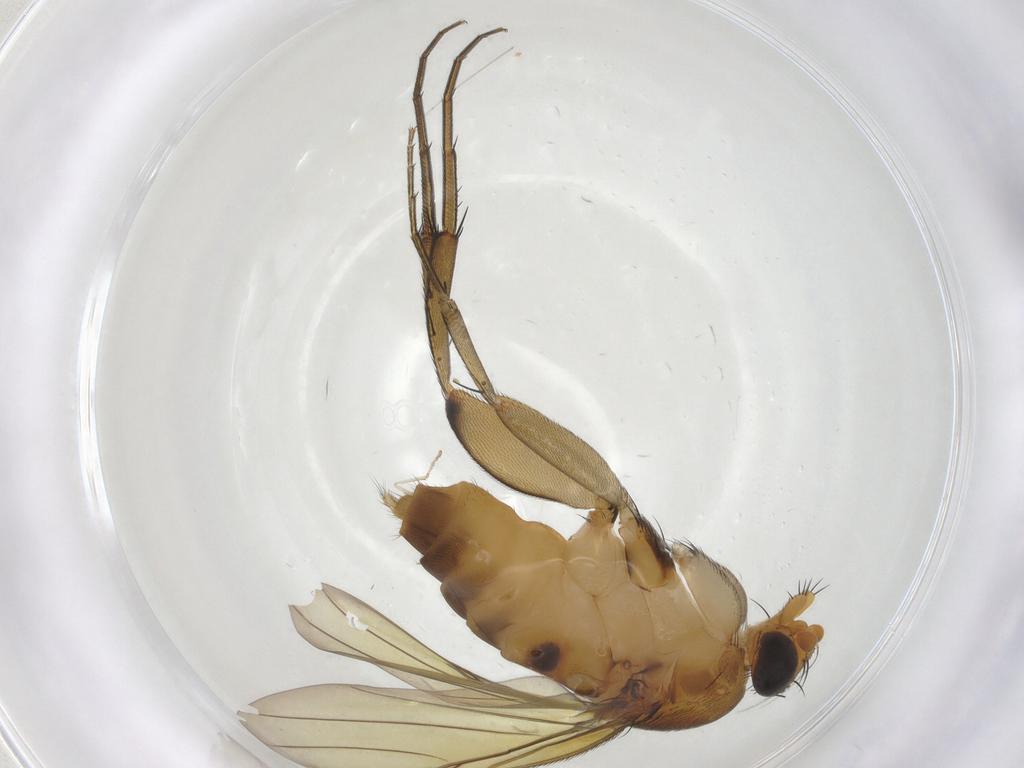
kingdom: Animalia
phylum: Arthropoda
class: Insecta
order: Diptera
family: Phoridae
